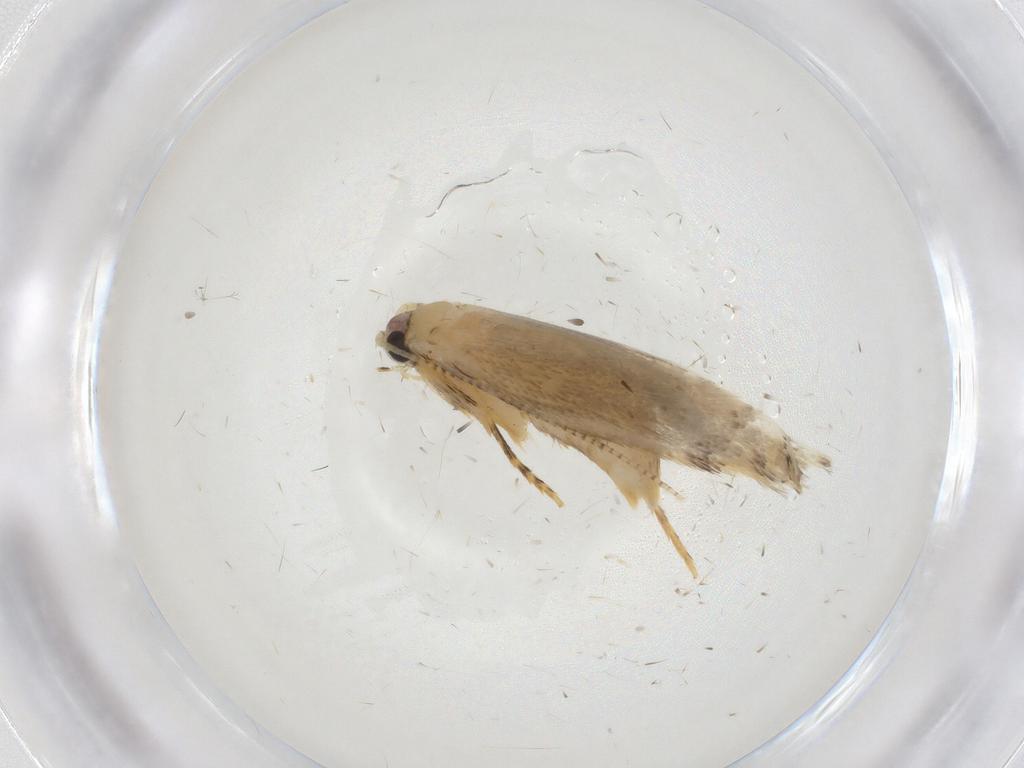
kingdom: Animalia
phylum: Arthropoda
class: Insecta
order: Lepidoptera
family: Tineidae
